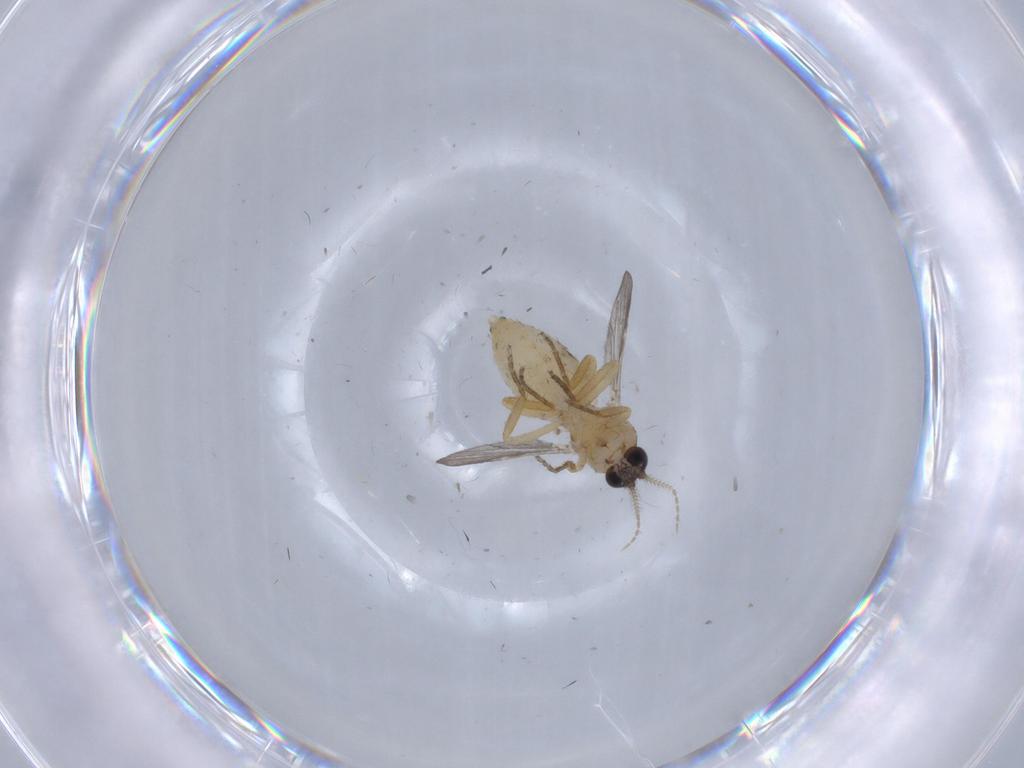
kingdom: Animalia
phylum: Arthropoda
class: Insecta
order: Diptera
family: Ceratopogonidae
